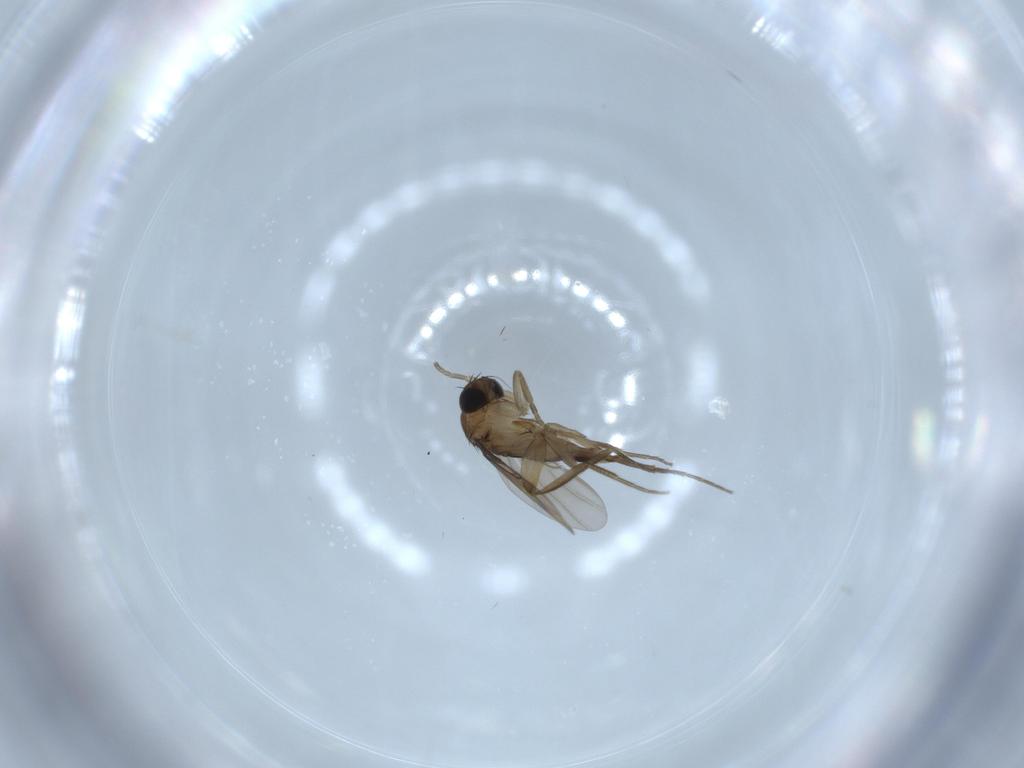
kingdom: Animalia
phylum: Arthropoda
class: Insecta
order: Diptera
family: Phoridae
